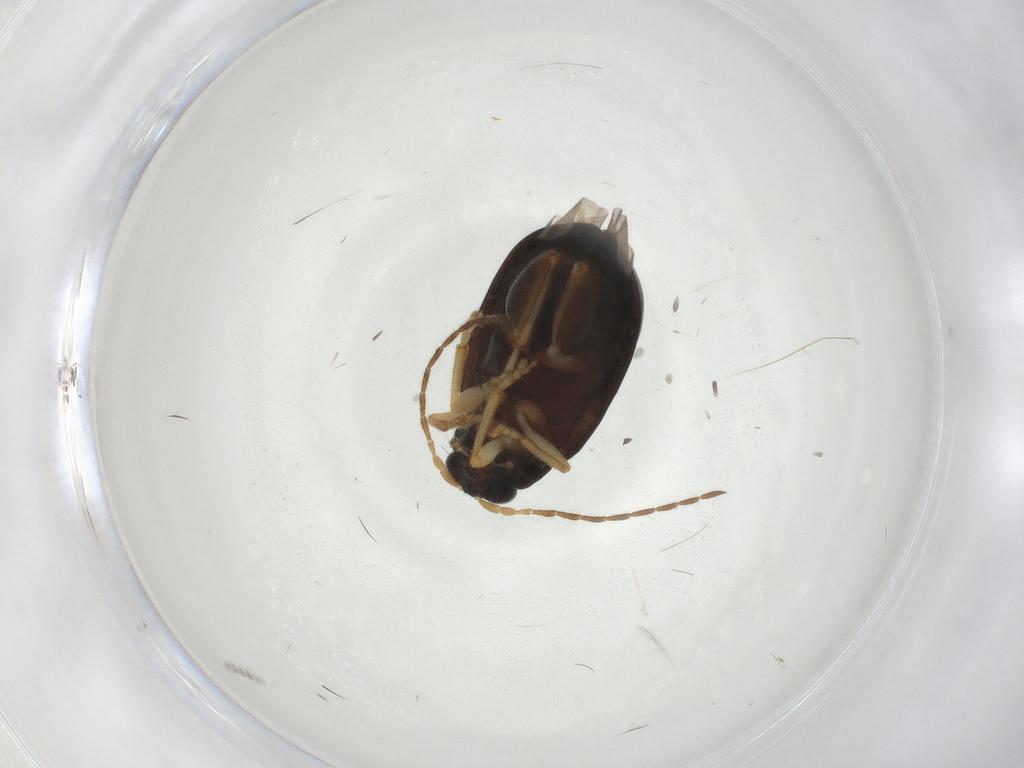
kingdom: Animalia
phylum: Arthropoda
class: Insecta
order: Coleoptera
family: Chrysomelidae
